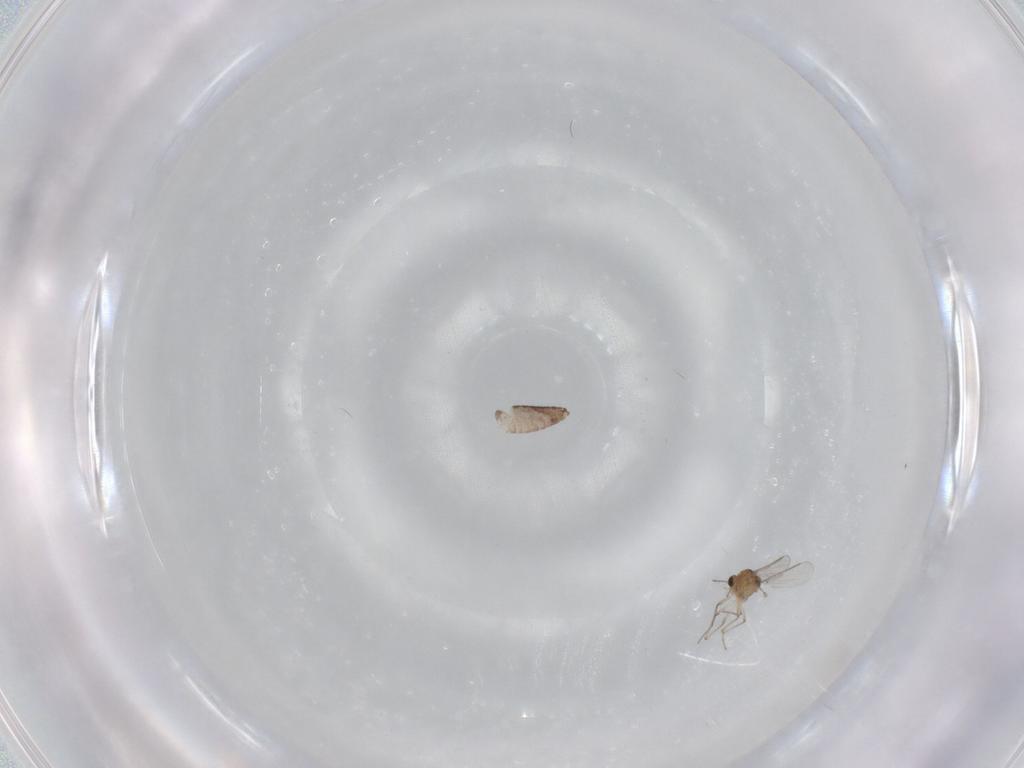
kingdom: Animalia
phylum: Arthropoda
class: Insecta
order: Diptera
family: Chironomidae
